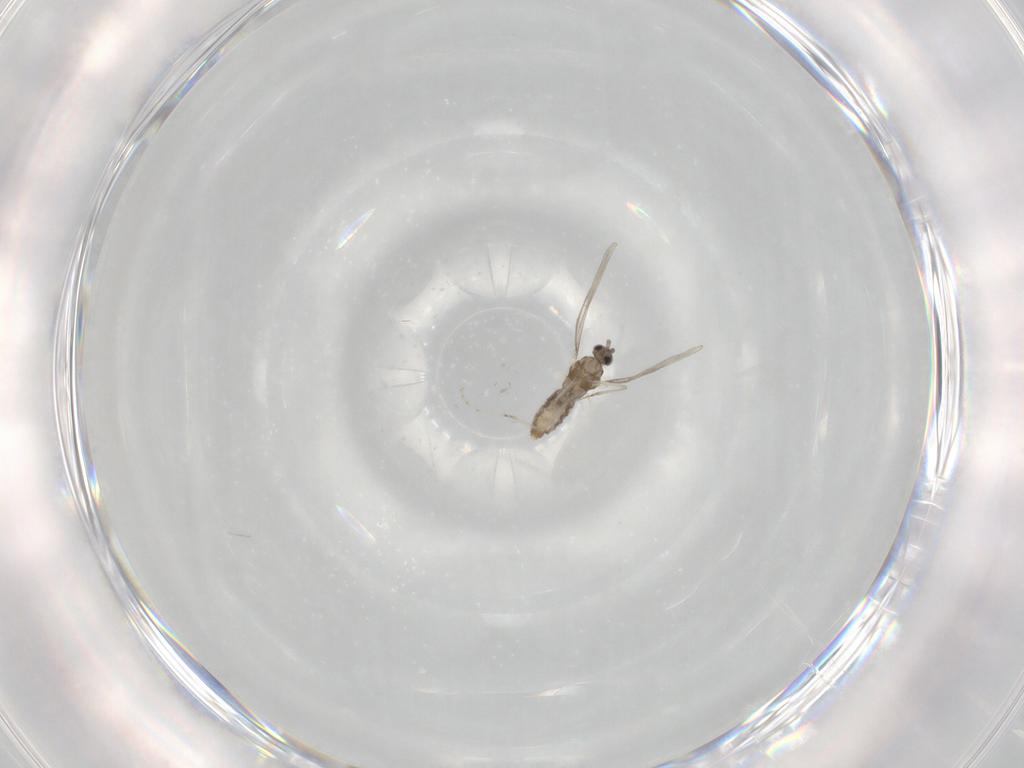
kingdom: Animalia
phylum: Arthropoda
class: Insecta
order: Diptera
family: Cecidomyiidae
